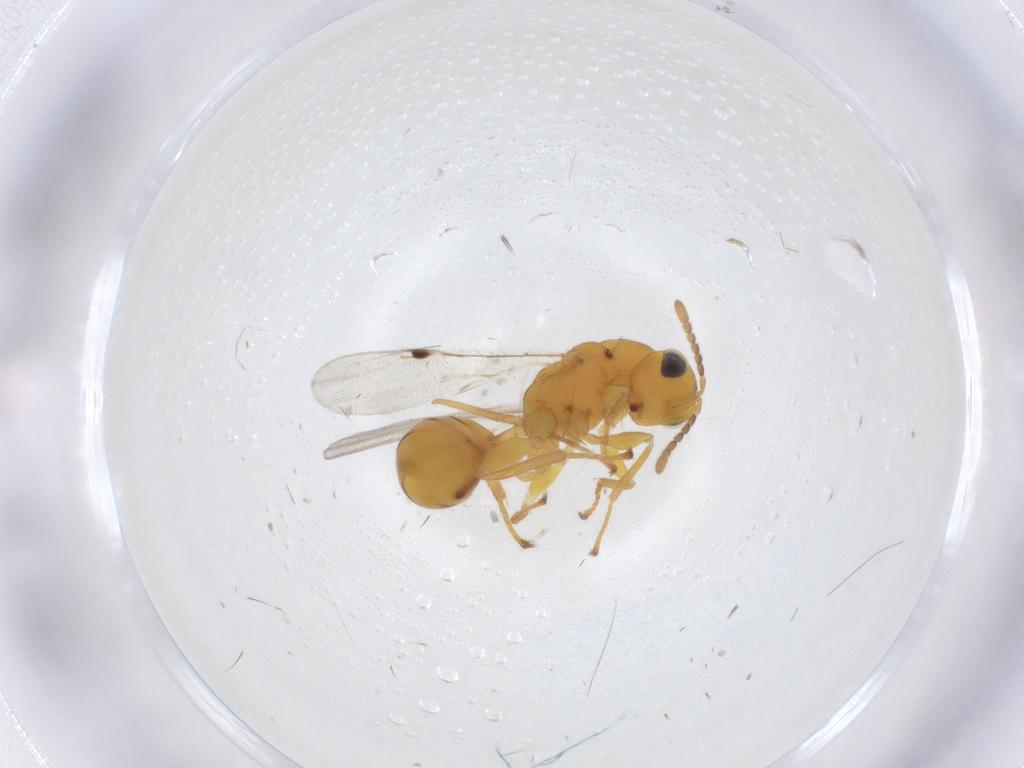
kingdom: Animalia
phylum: Arthropoda
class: Insecta
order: Hymenoptera
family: Ichneumonidae
